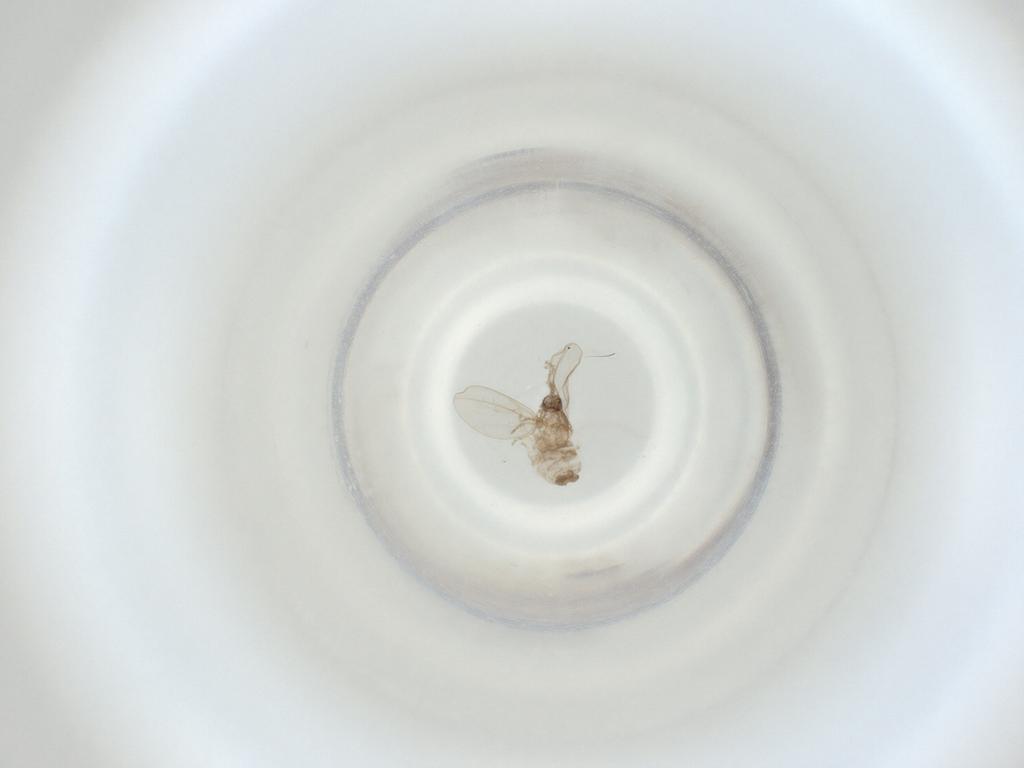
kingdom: Animalia
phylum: Arthropoda
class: Insecta
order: Diptera
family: Cecidomyiidae
